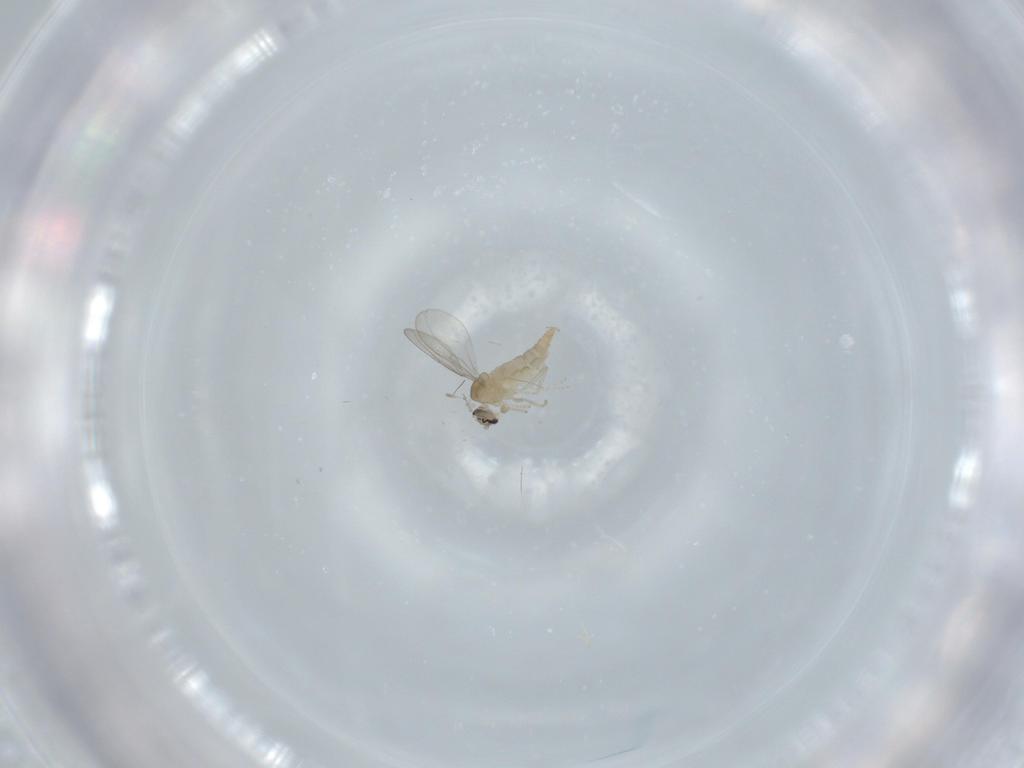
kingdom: Animalia
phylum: Arthropoda
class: Insecta
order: Diptera
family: Cecidomyiidae
